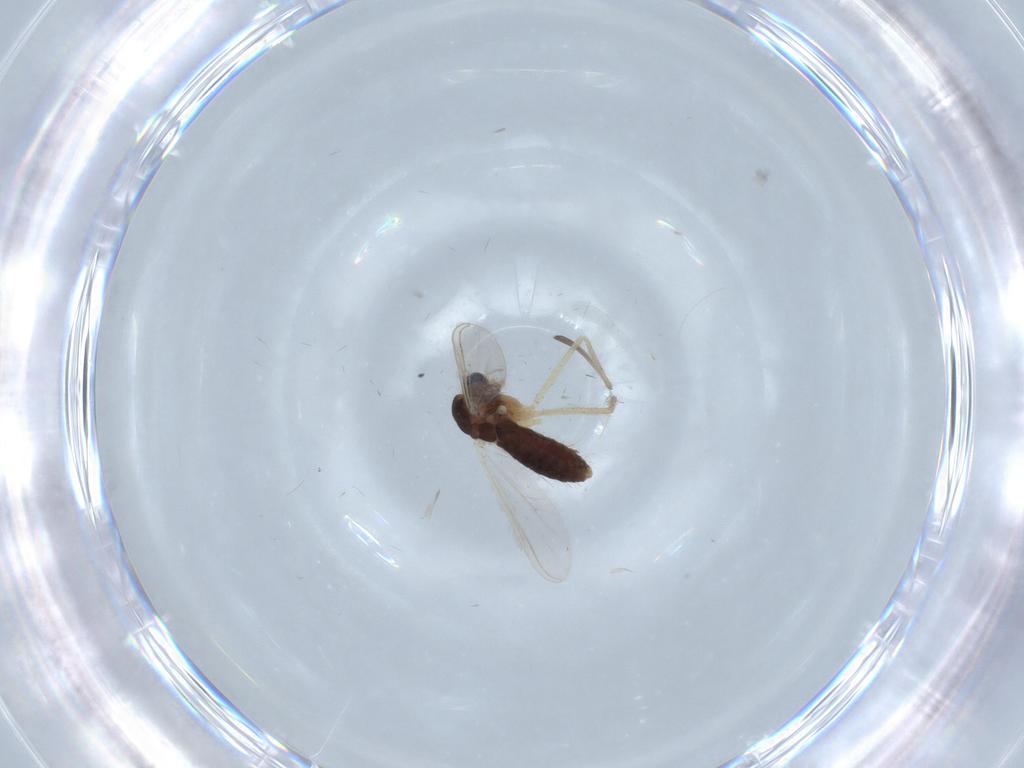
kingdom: Animalia
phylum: Arthropoda
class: Insecta
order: Diptera
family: Chironomidae
